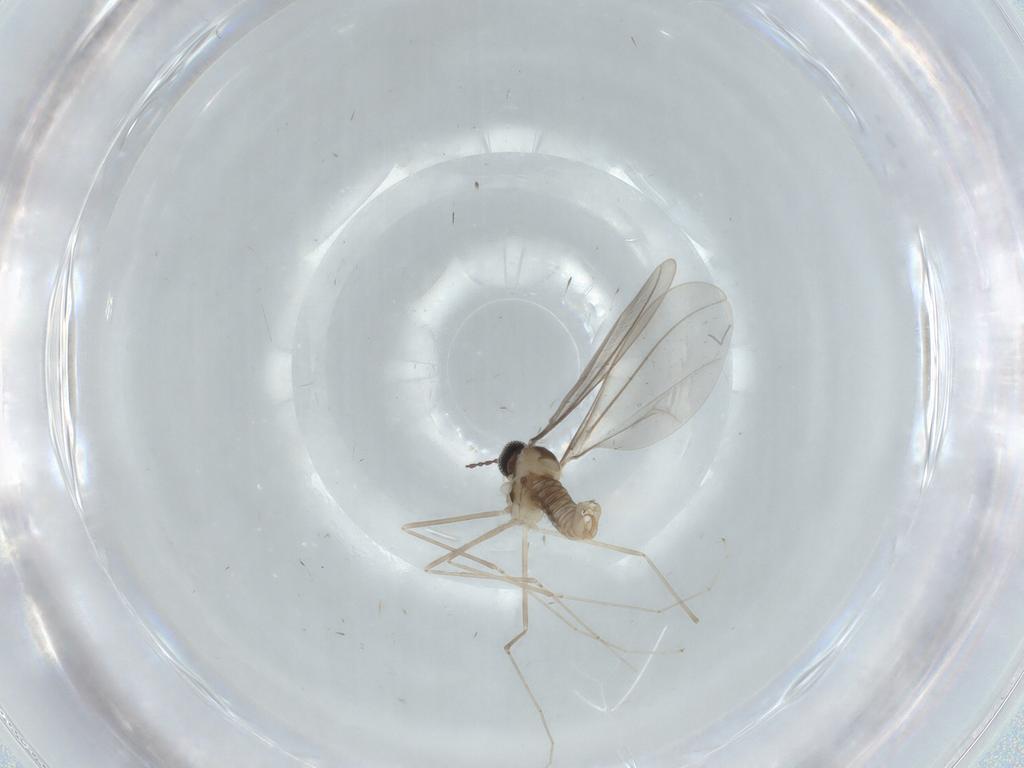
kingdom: Animalia
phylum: Arthropoda
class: Insecta
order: Diptera
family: Cecidomyiidae
